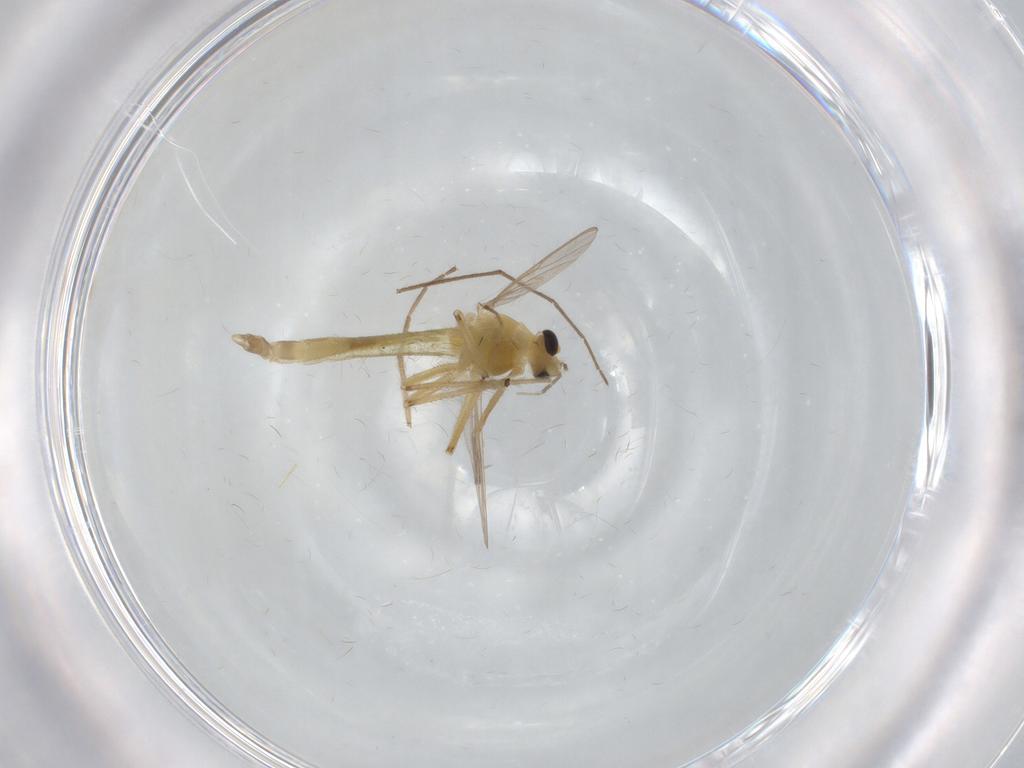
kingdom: Animalia
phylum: Arthropoda
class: Insecta
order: Diptera
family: Chironomidae
